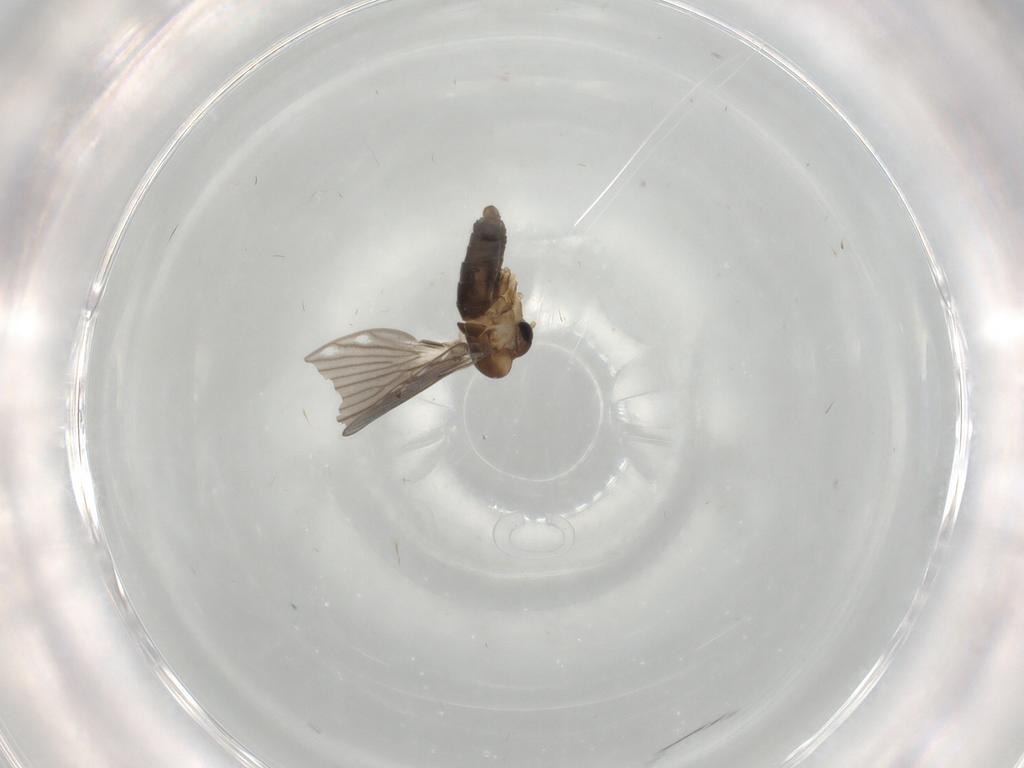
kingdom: Animalia
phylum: Arthropoda
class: Insecta
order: Diptera
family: Psychodidae
